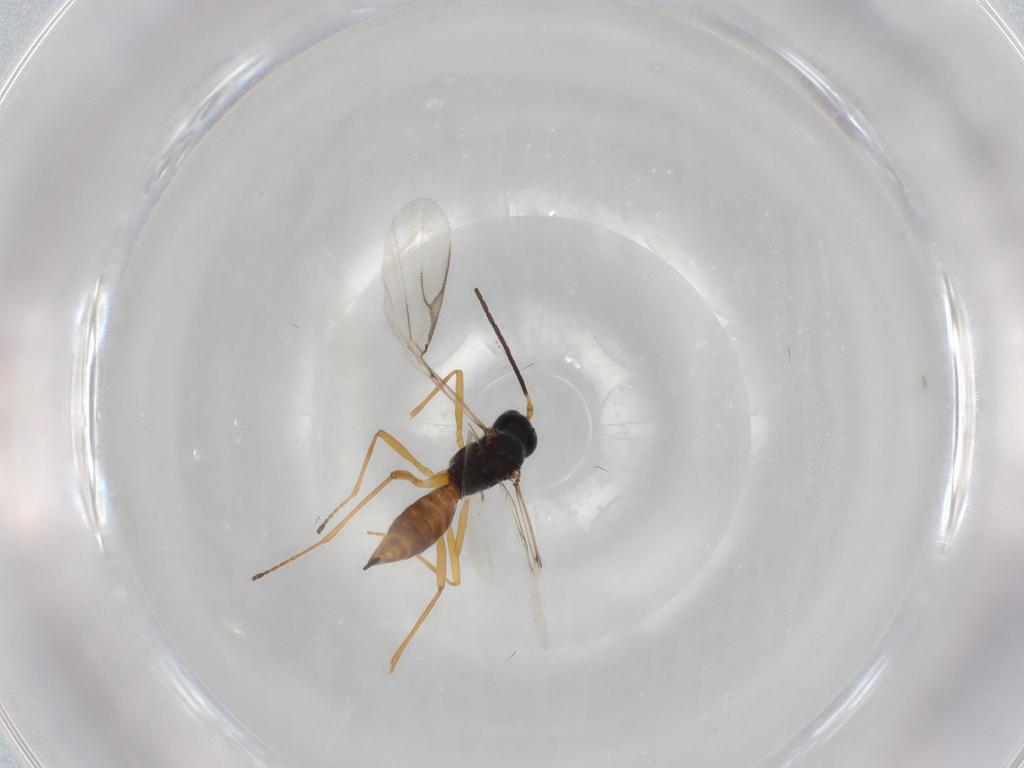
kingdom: Animalia
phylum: Arthropoda
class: Insecta
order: Hymenoptera
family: Braconidae
